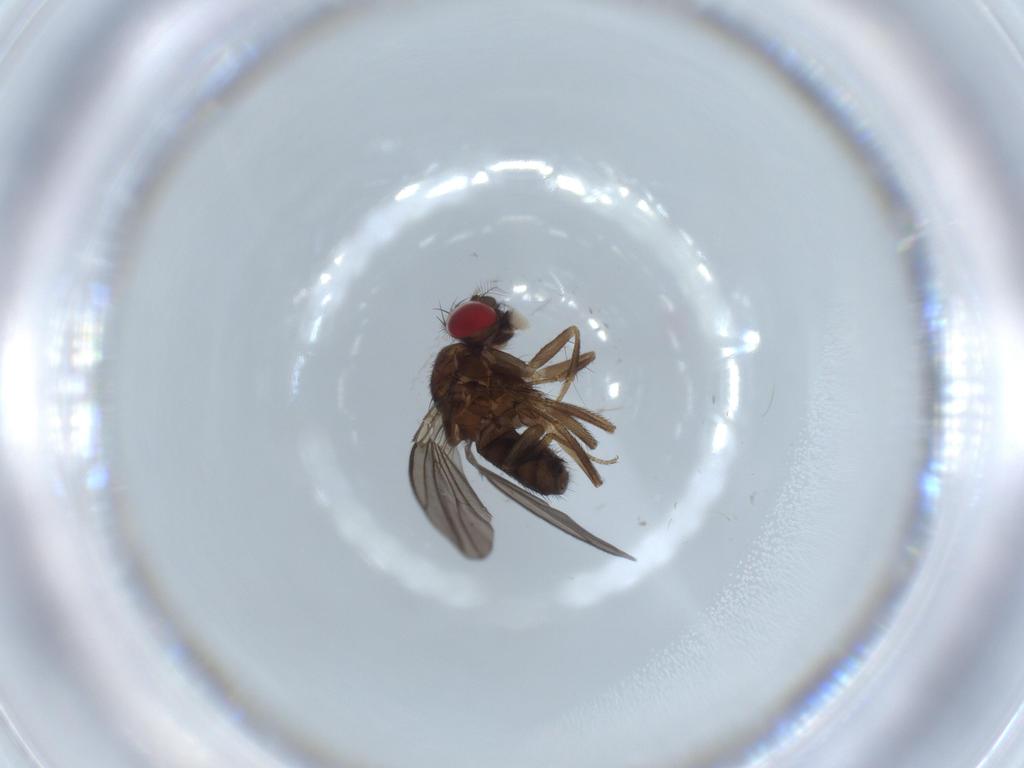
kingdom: Animalia
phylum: Arthropoda
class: Insecta
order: Diptera
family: Drosophilidae
